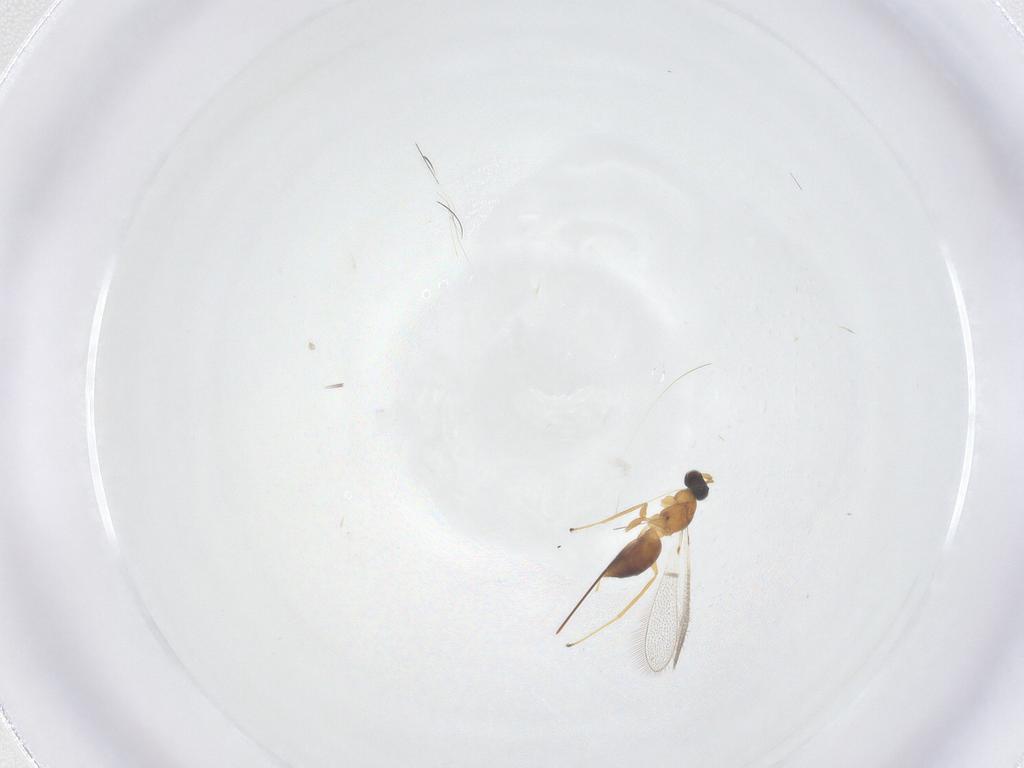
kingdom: Animalia
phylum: Arthropoda
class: Insecta
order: Hymenoptera
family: Mymaridae
